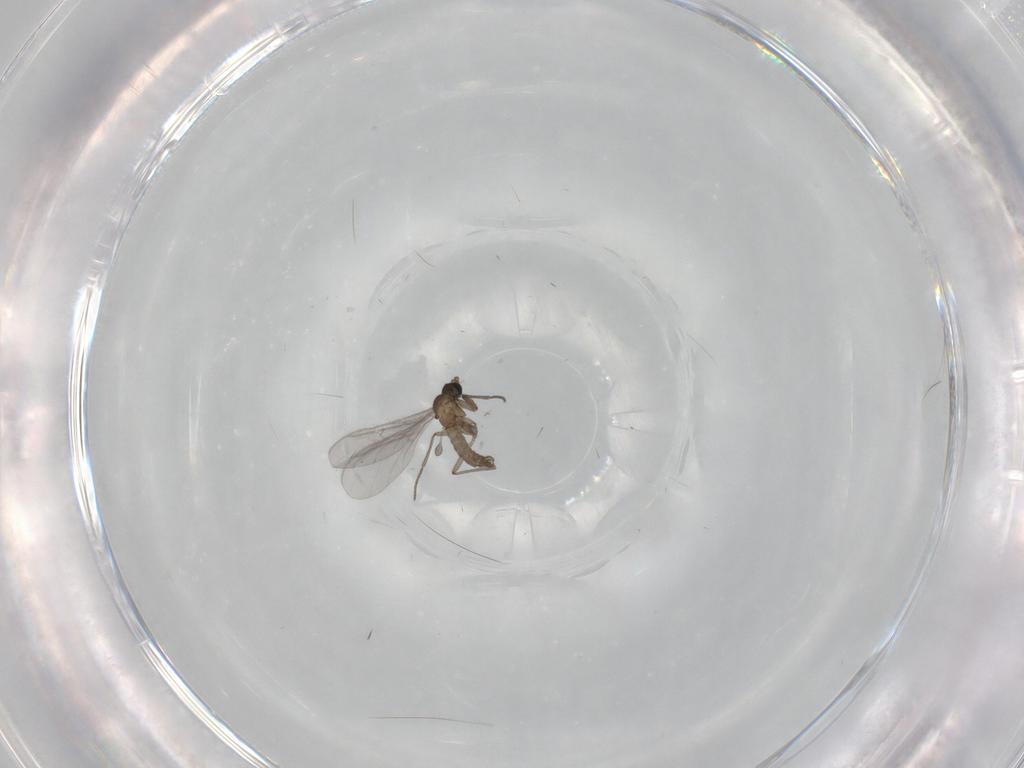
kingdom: Animalia
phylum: Arthropoda
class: Insecta
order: Diptera
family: Sciaridae
